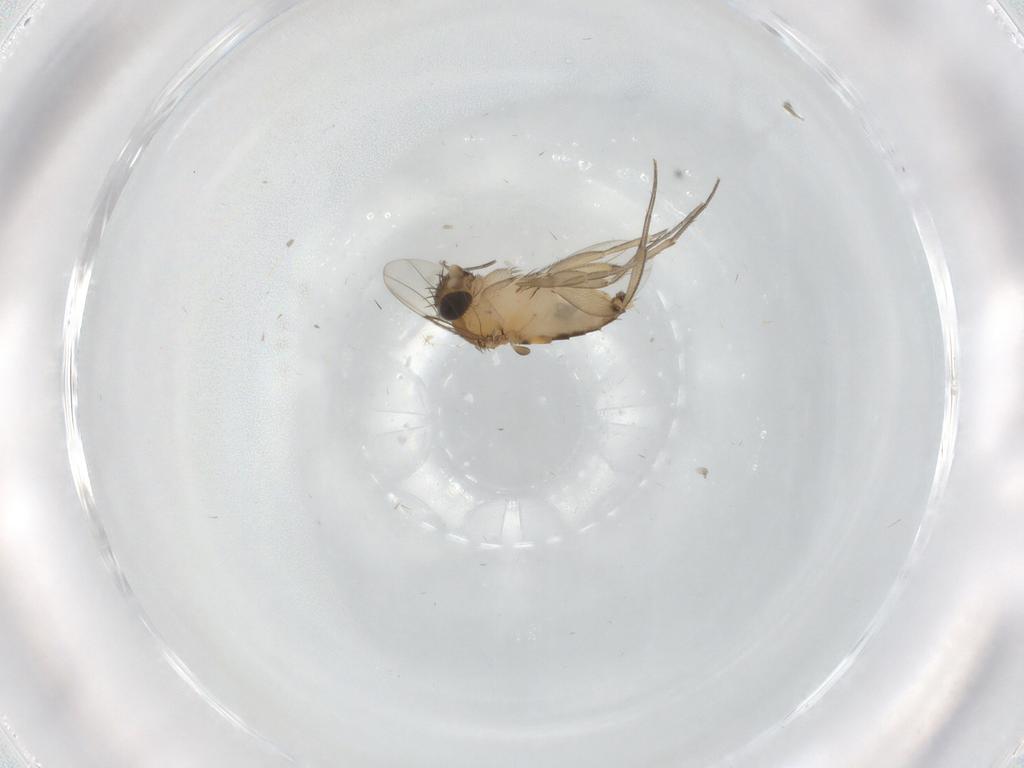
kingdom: Animalia
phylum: Arthropoda
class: Insecta
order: Diptera
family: Phoridae
